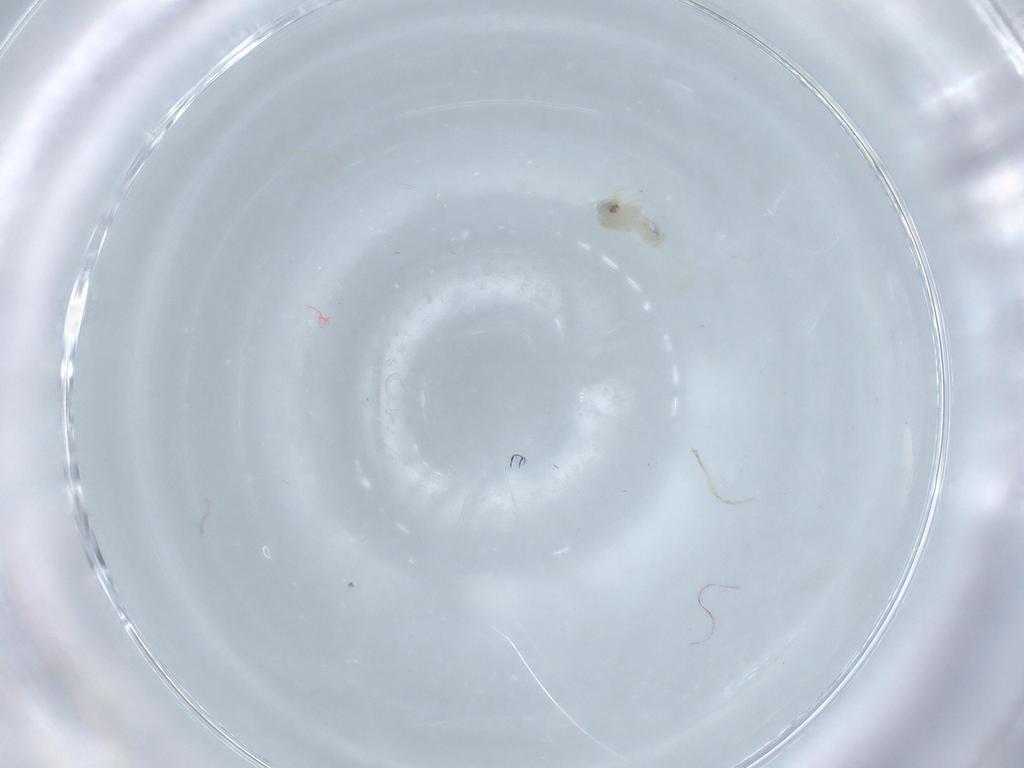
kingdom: Animalia
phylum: Arthropoda
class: Insecta
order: Hemiptera
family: Aleyrodidae
